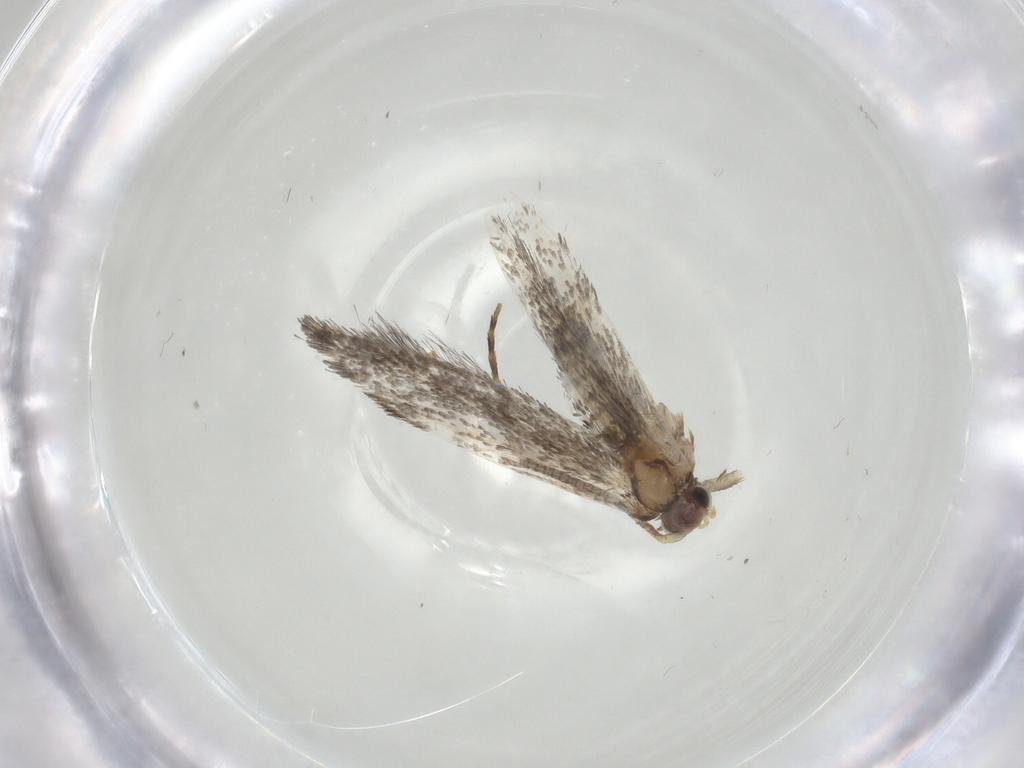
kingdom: Animalia
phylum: Arthropoda
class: Insecta
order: Lepidoptera
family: Tineidae
